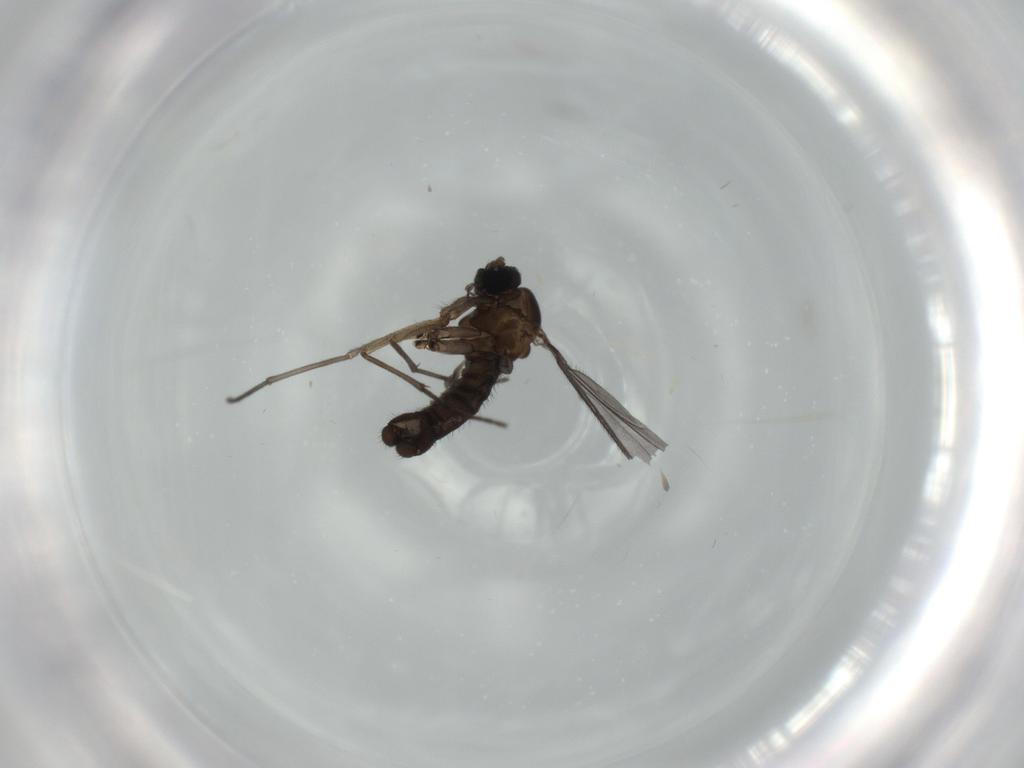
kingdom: Animalia
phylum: Arthropoda
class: Insecta
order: Diptera
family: Sciaridae
